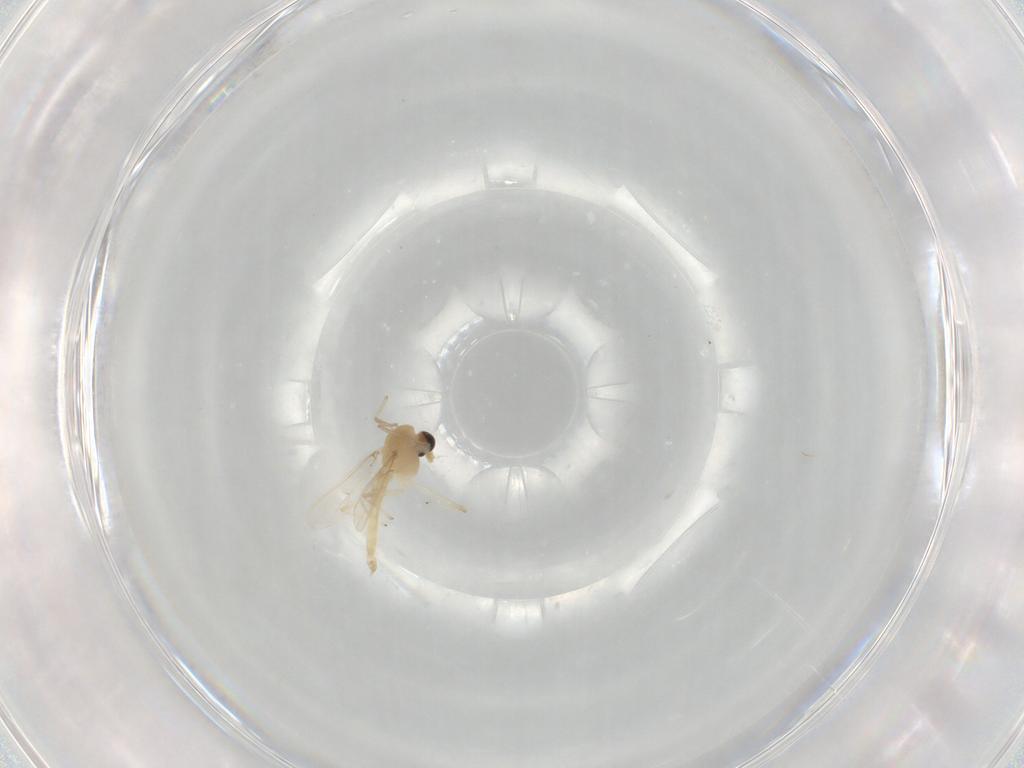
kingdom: Animalia
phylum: Arthropoda
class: Insecta
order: Diptera
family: Chironomidae
